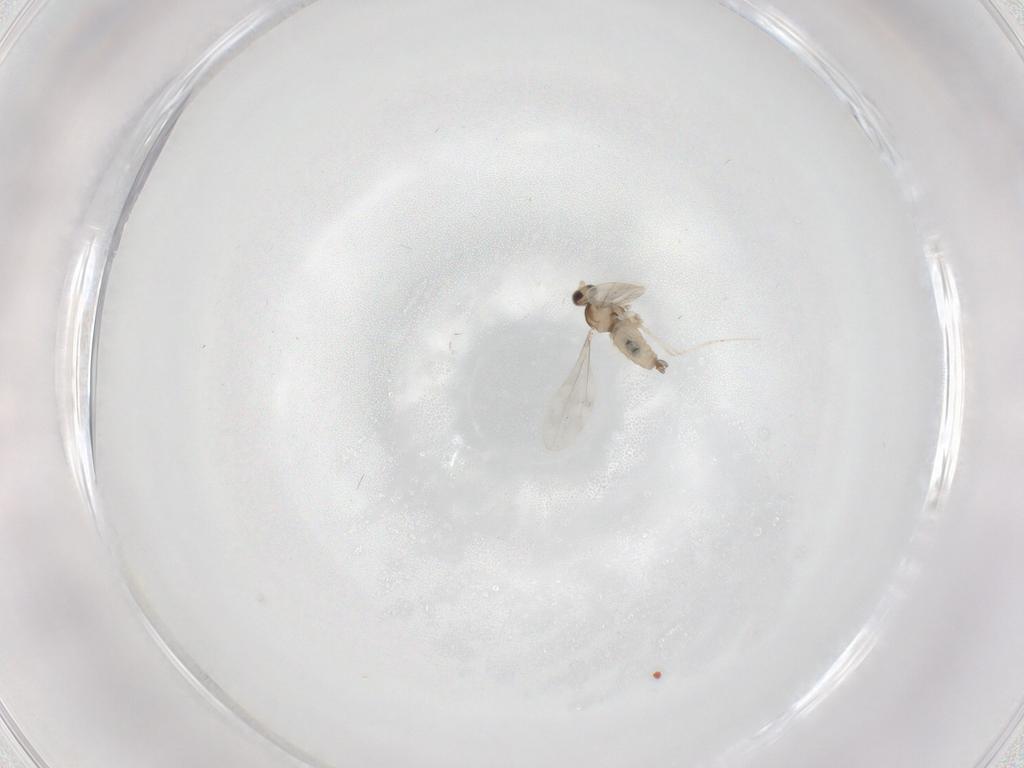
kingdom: Animalia
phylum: Arthropoda
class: Insecta
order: Diptera
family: Cecidomyiidae
